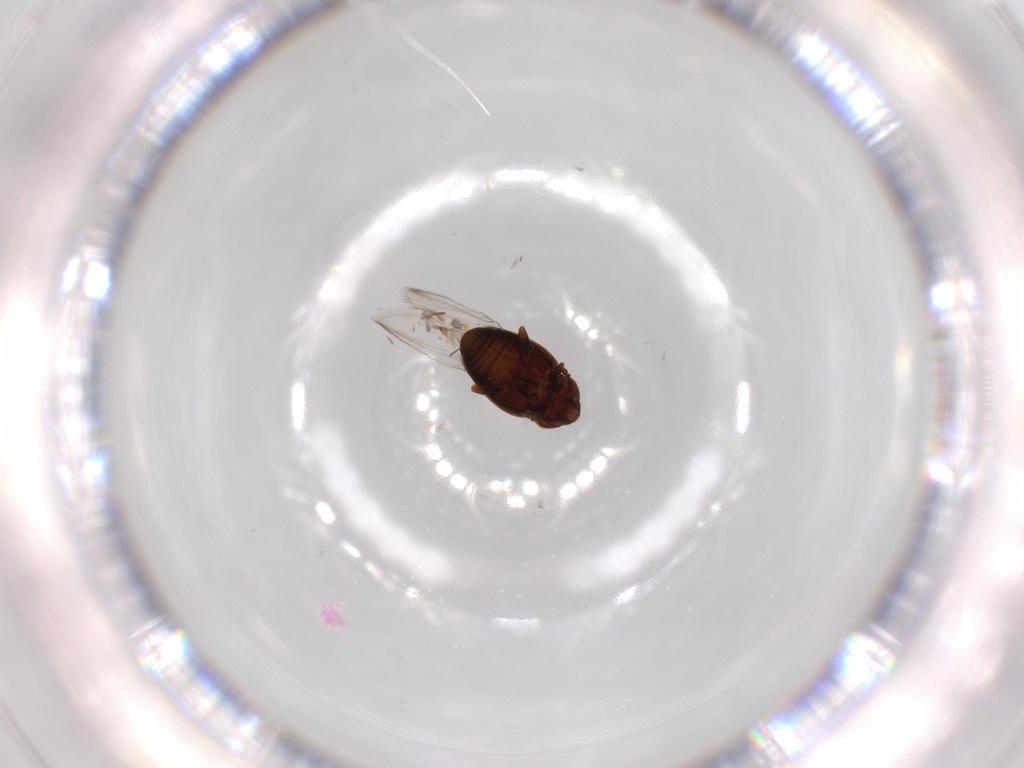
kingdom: Animalia
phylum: Arthropoda
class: Insecta
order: Coleoptera
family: Corylophidae
